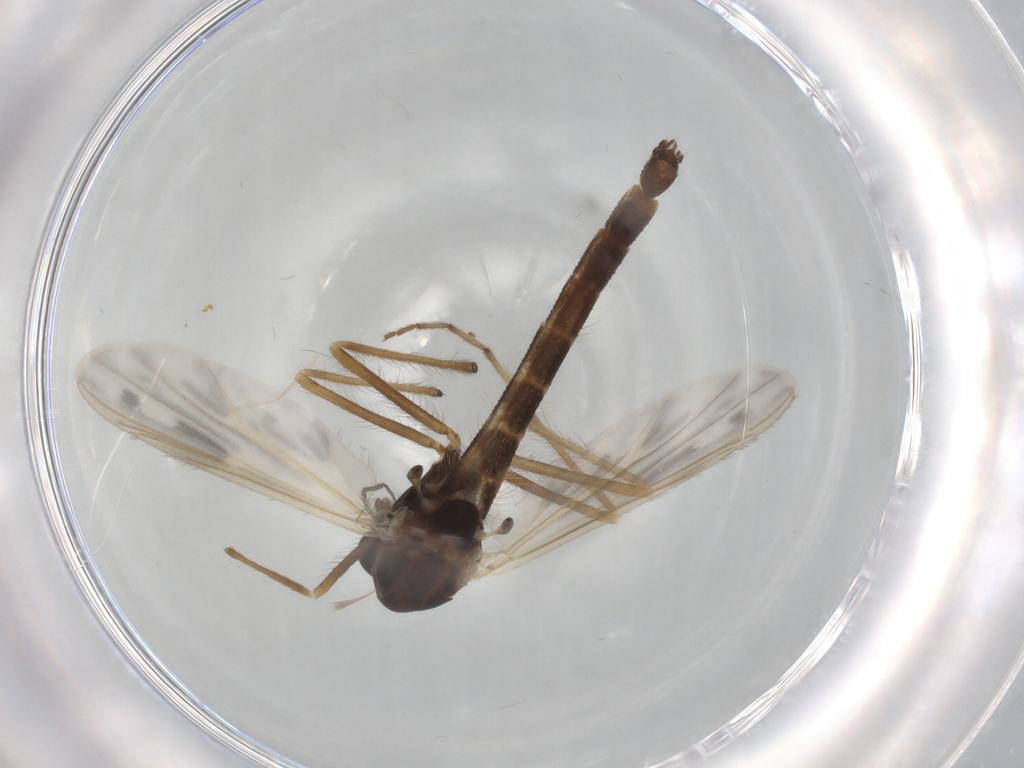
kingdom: Animalia
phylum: Arthropoda
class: Insecta
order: Diptera
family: Chironomidae
